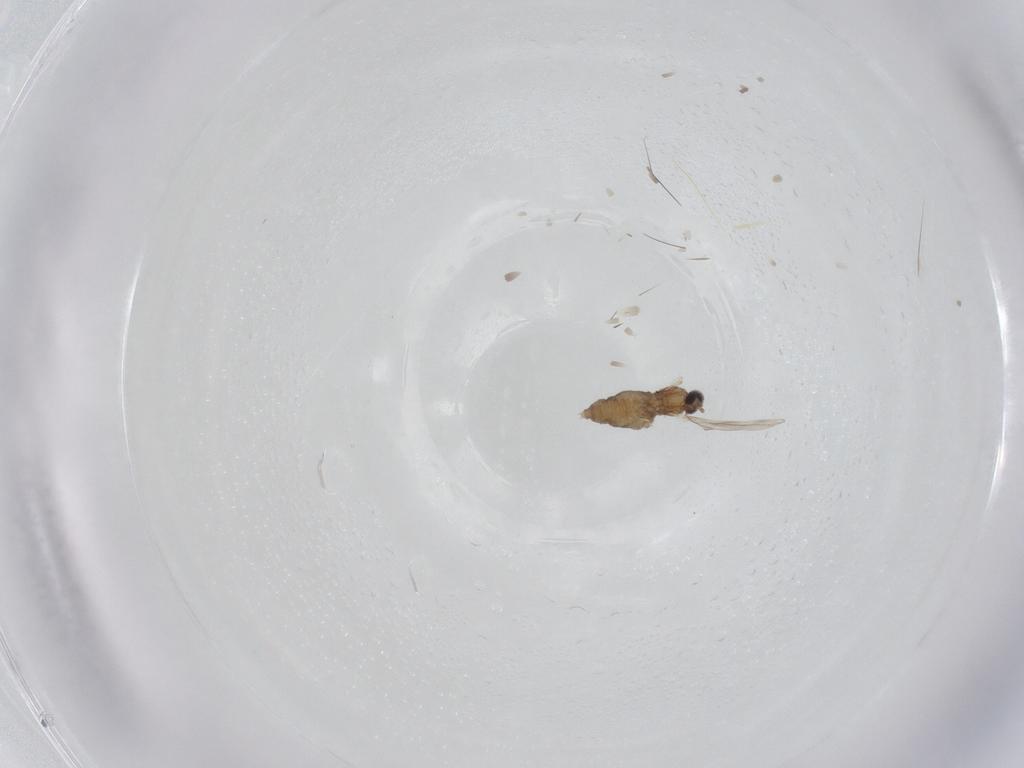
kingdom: Animalia
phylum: Arthropoda
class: Insecta
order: Diptera
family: Cecidomyiidae
